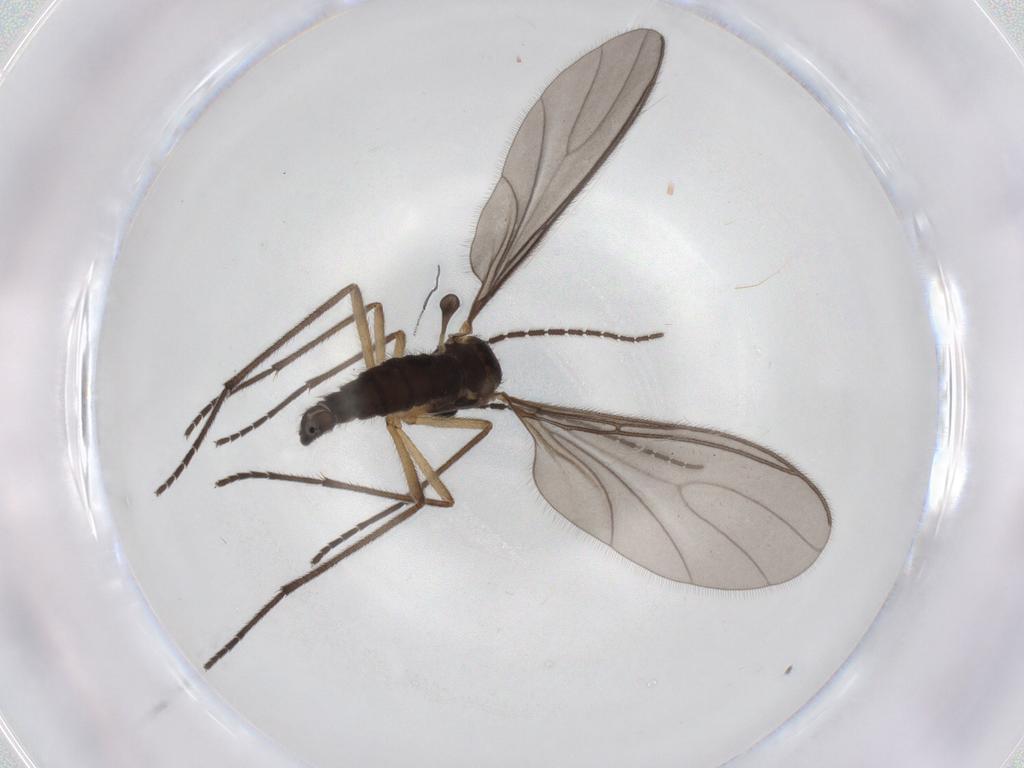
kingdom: Animalia
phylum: Arthropoda
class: Insecta
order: Diptera
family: Sciaridae
